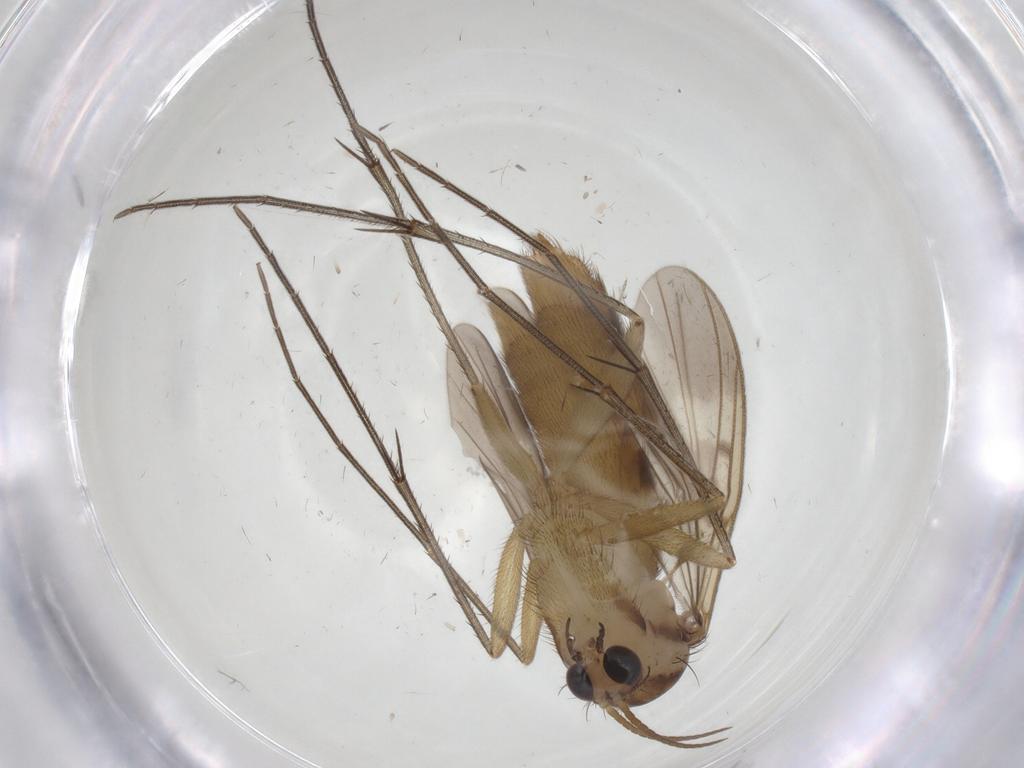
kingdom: Animalia
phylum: Arthropoda
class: Insecta
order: Diptera
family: Mycetophilidae
